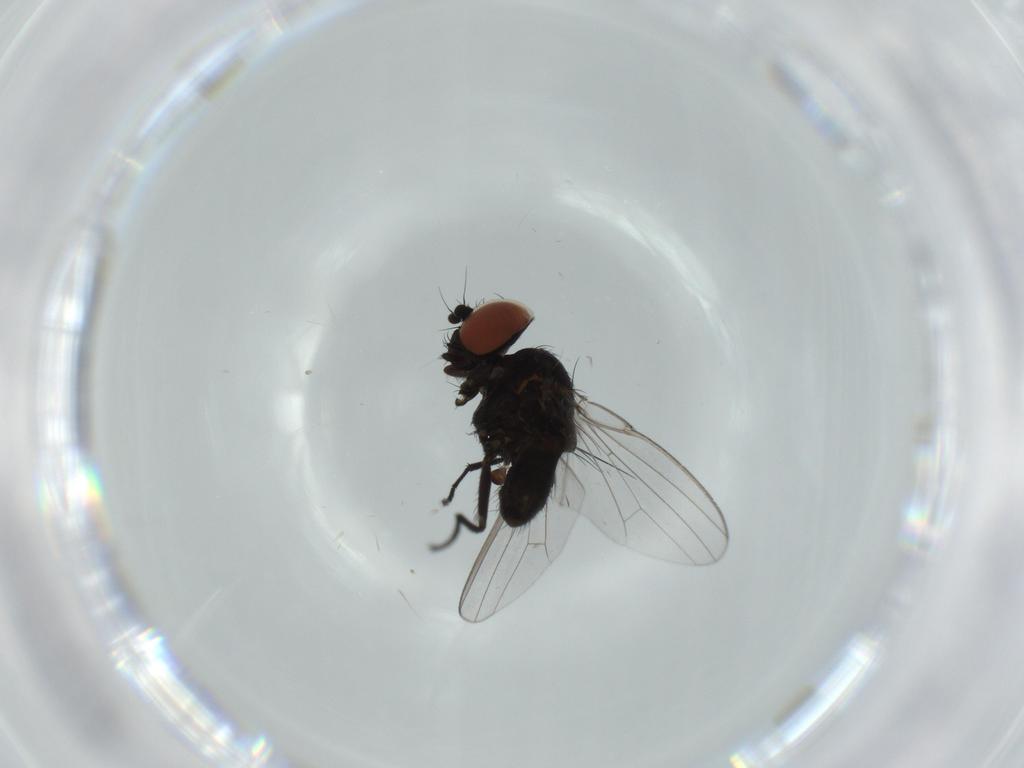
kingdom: Animalia
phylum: Arthropoda
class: Insecta
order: Diptera
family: Milichiidae
